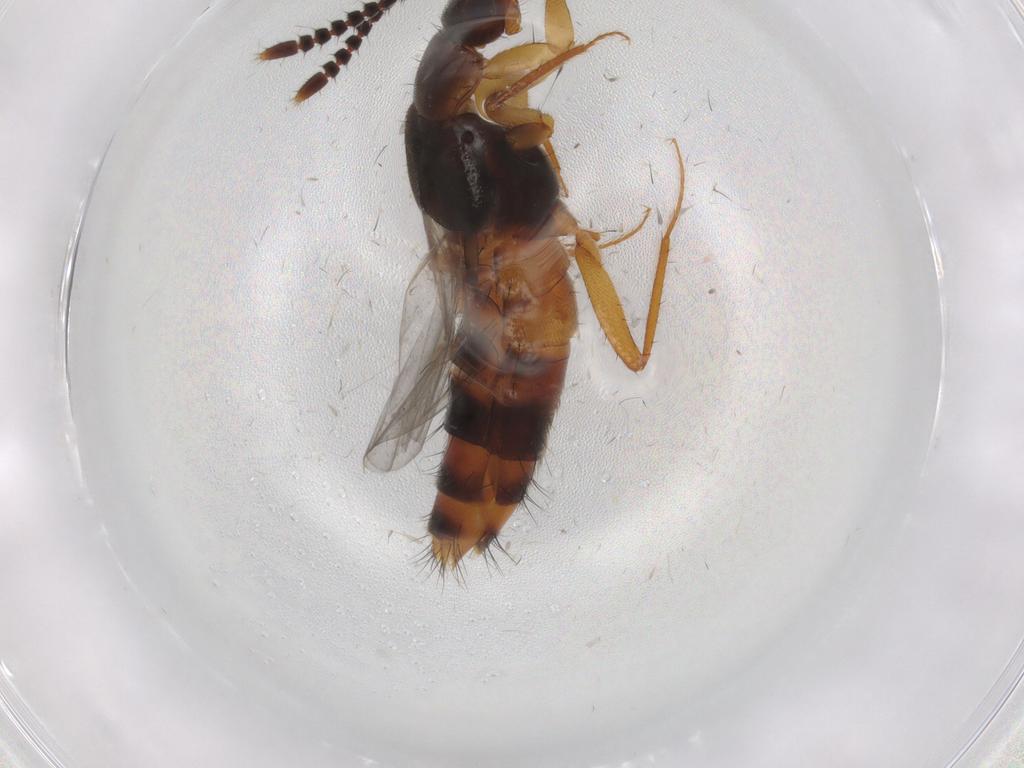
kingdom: Animalia
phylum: Arthropoda
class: Insecta
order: Coleoptera
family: Staphylinidae
